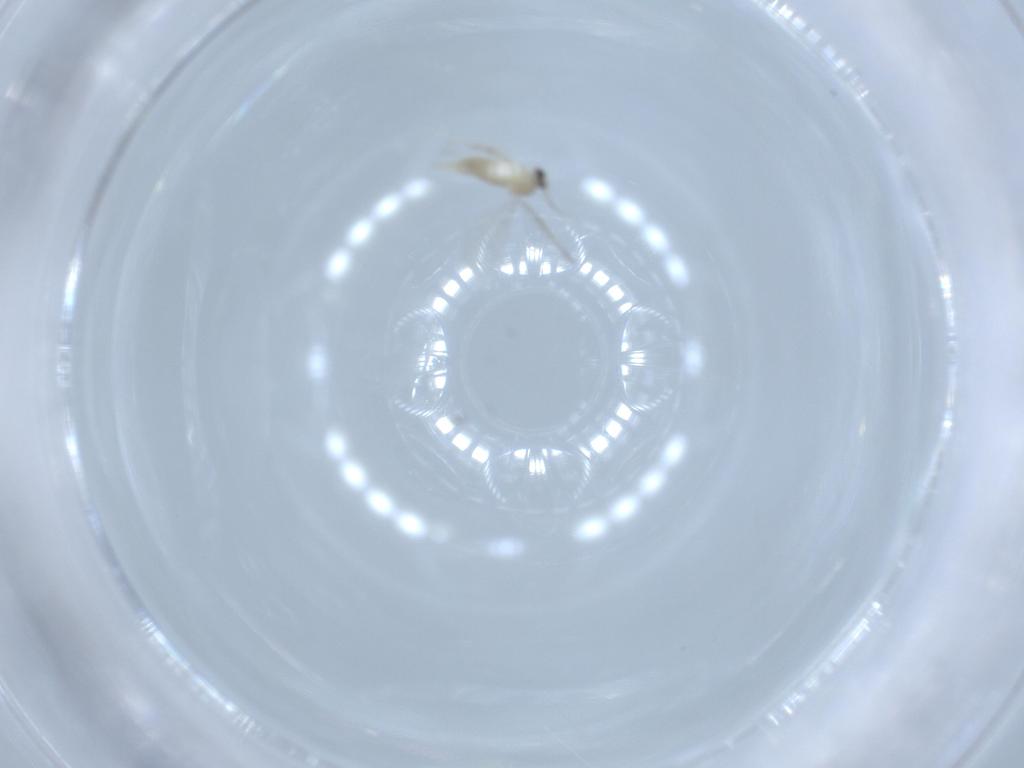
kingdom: Animalia
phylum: Arthropoda
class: Insecta
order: Diptera
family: Cecidomyiidae
